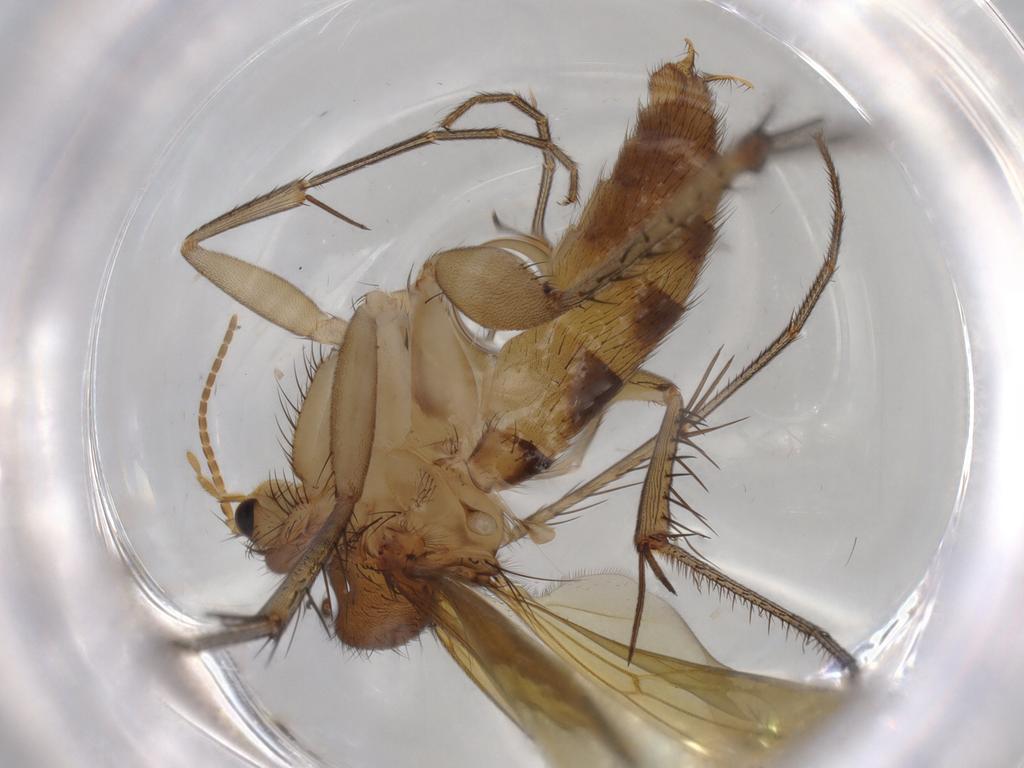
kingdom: Animalia
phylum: Arthropoda
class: Insecta
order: Diptera
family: Mycetophilidae
